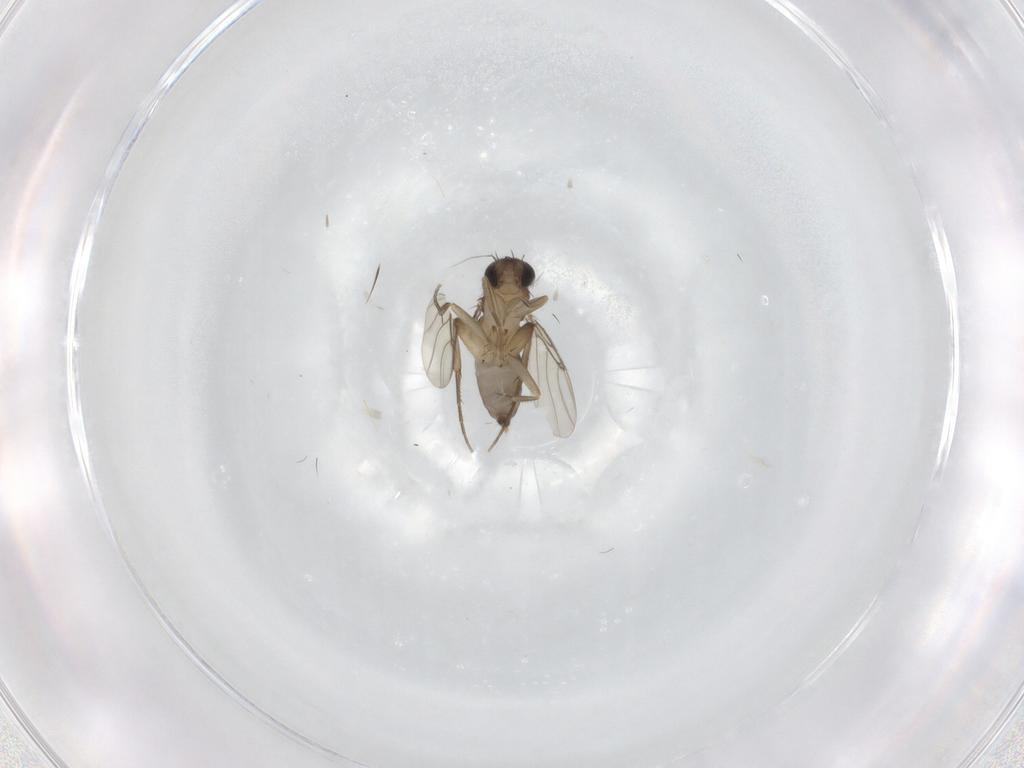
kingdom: Animalia
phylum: Arthropoda
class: Insecta
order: Diptera
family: Phoridae
